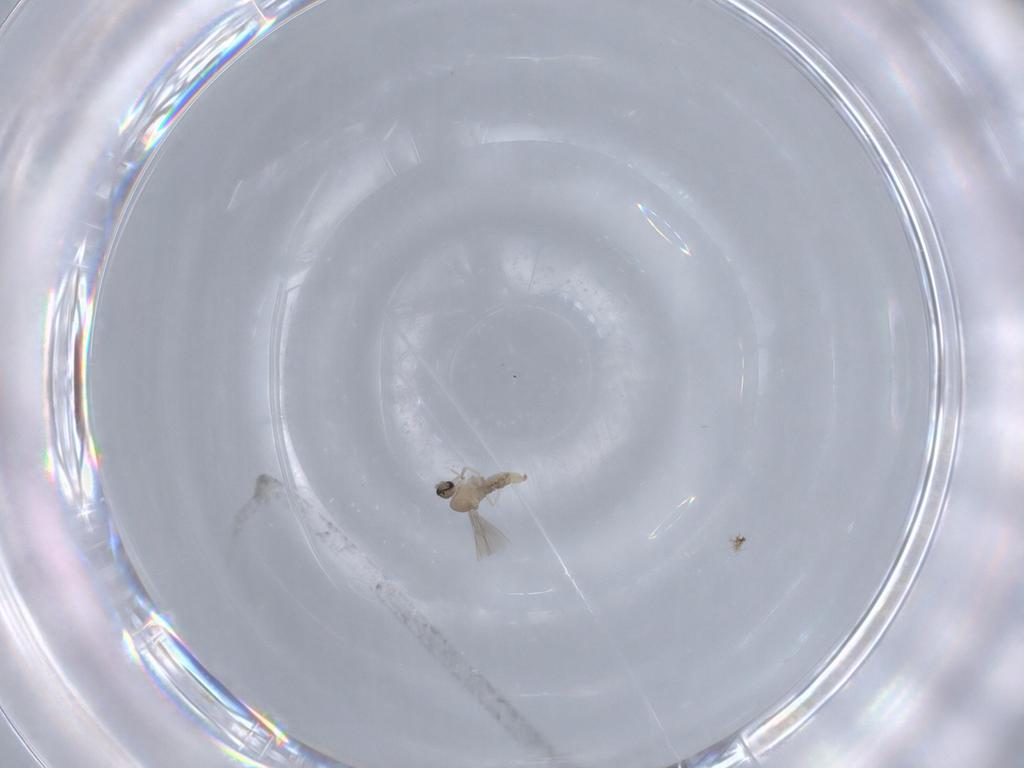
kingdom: Animalia
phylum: Arthropoda
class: Insecta
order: Diptera
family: Cecidomyiidae
